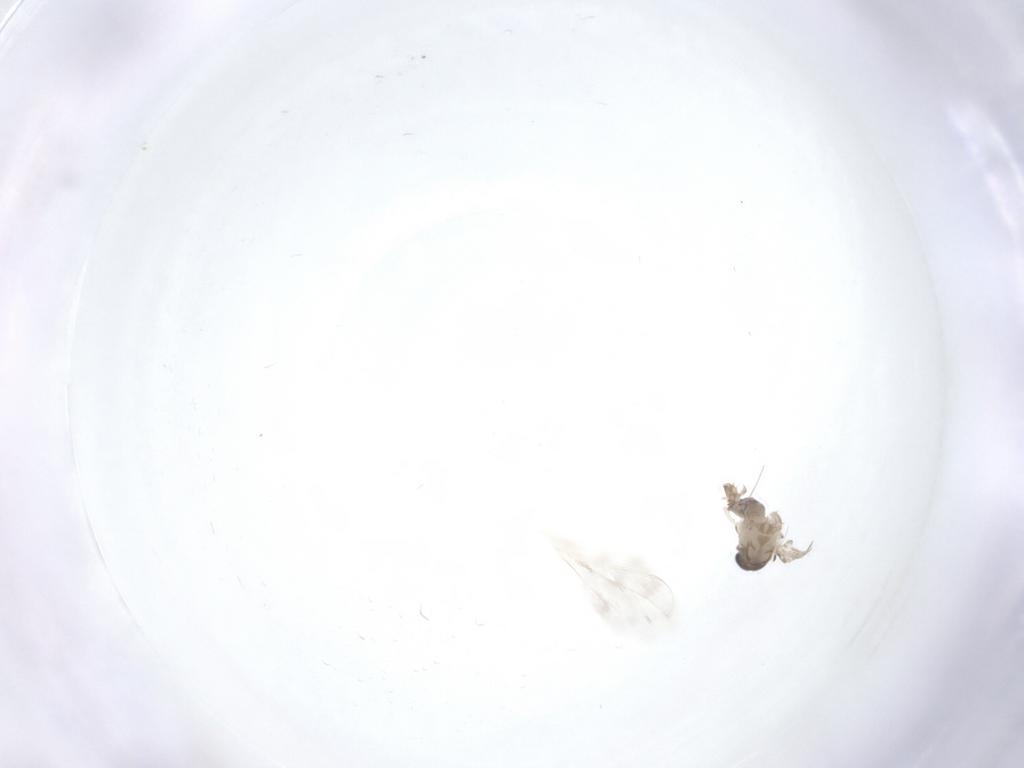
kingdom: Animalia
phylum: Arthropoda
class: Insecta
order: Diptera
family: Psychodidae
